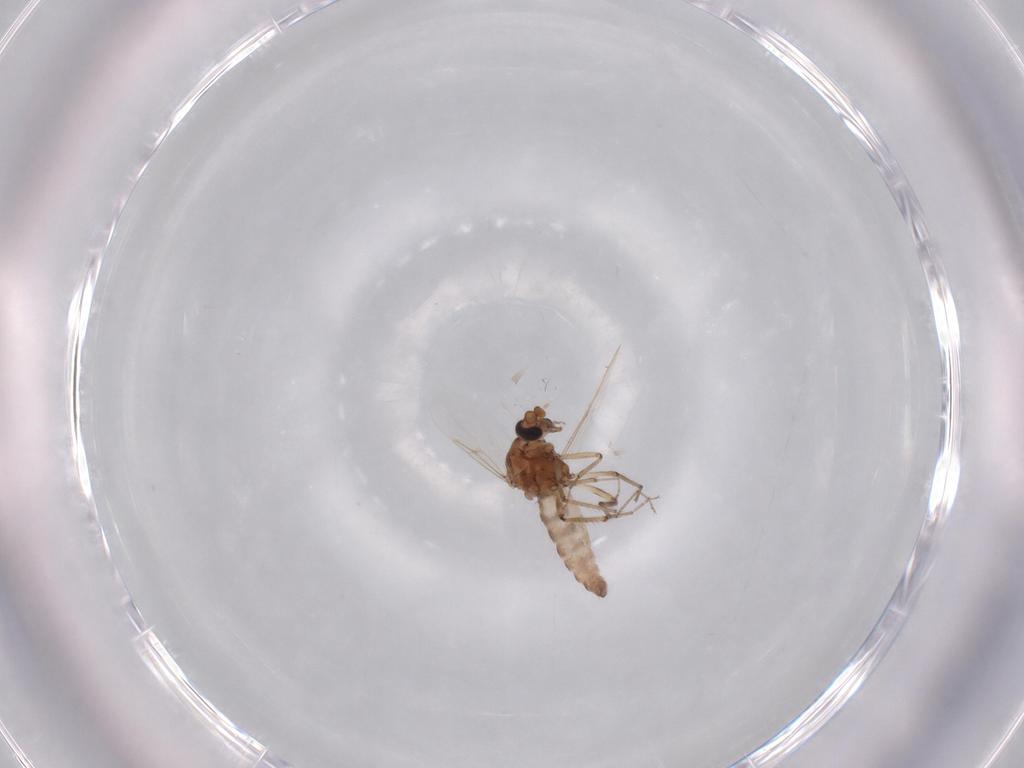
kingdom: Animalia
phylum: Arthropoda
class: Insecta
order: Diptera
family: Ceratopogonidae
